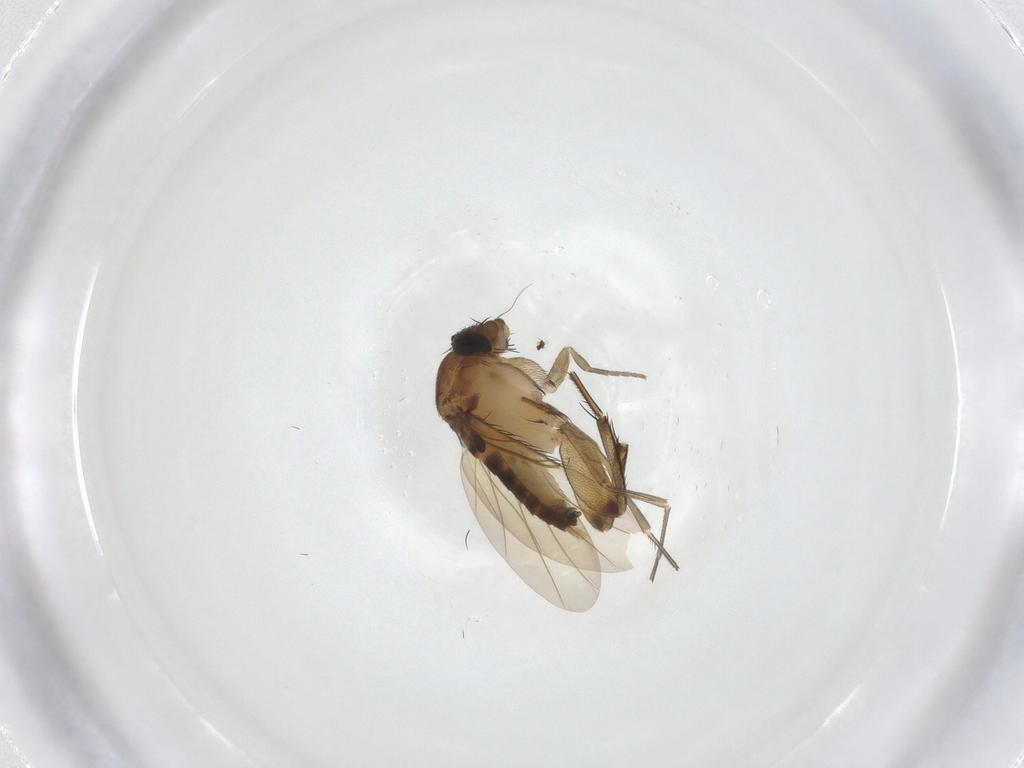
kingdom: Animalia
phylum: Arthropoda
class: Insecta
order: Diptera
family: Phoridae
